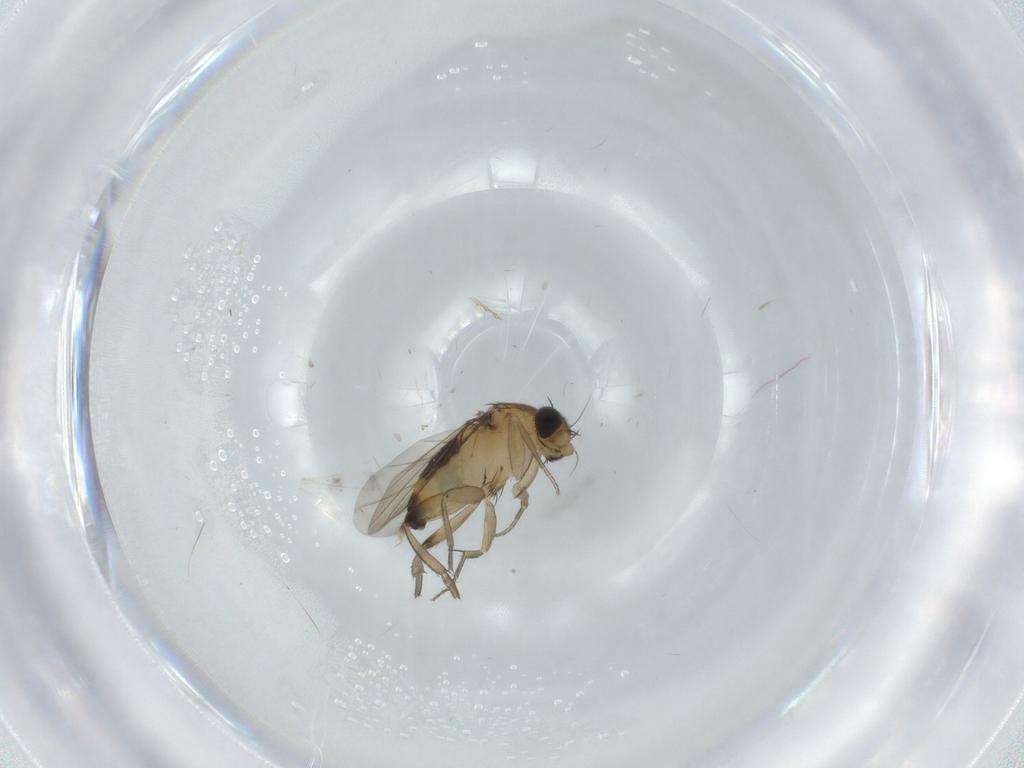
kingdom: Animalia
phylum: Arthropoda
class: Insecta
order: Diptera
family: Phoridae
